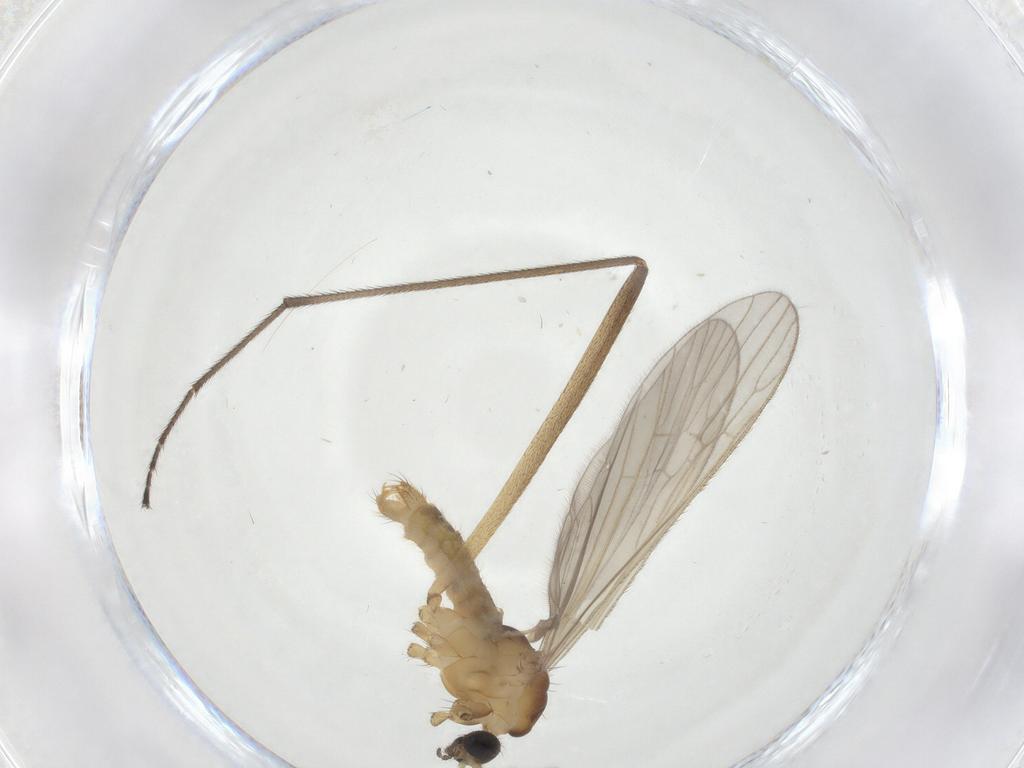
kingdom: Animalia
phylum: Arthropoda
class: Insecta
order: Diptera
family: Limoniidae
